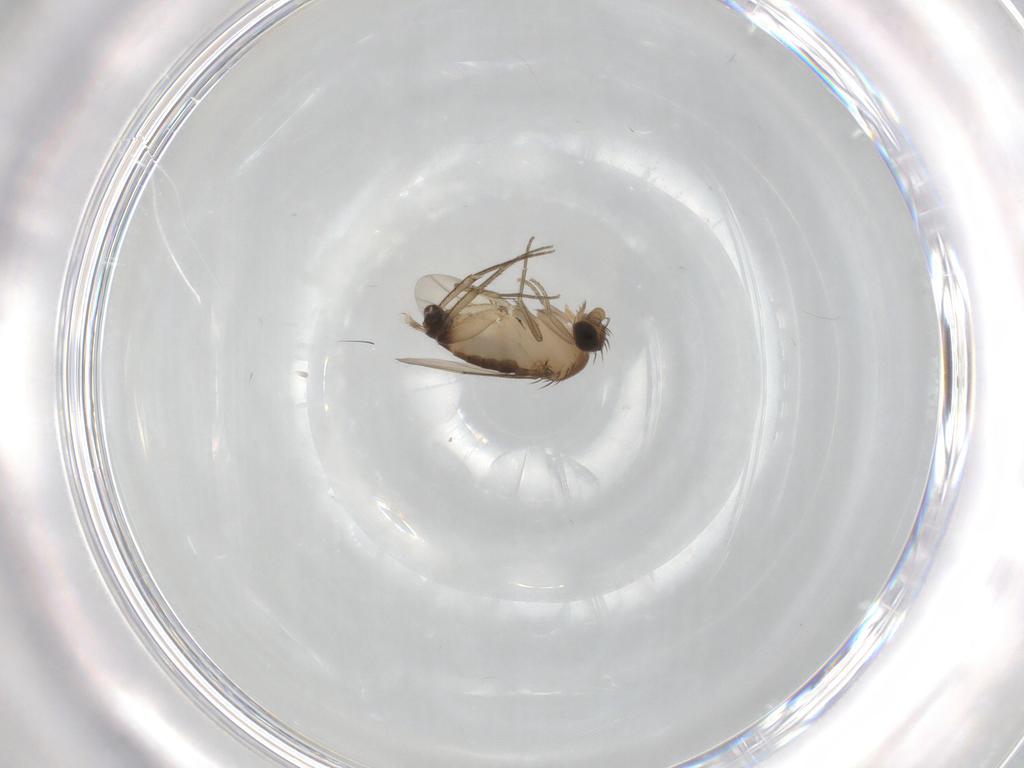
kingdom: Animalia
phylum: Arthropoda
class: Insecta
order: Diptera
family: Phoridae
